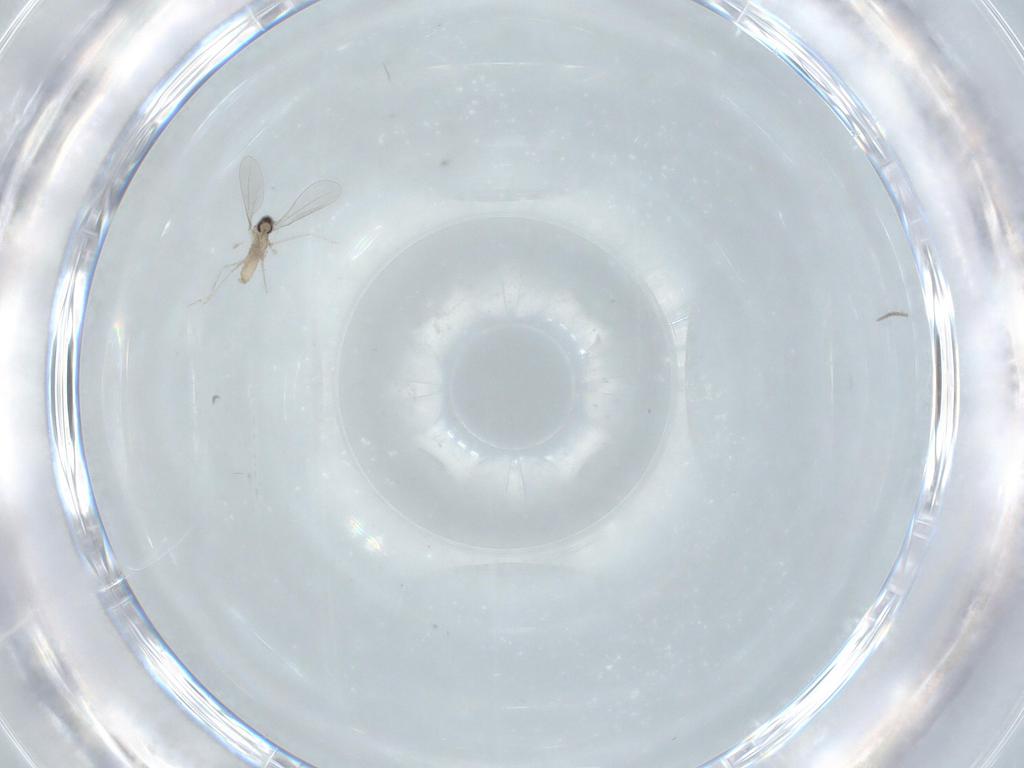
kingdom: Animalia
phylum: Arthropoda
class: Insecta
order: Diptera
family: Cecidomyiidae
